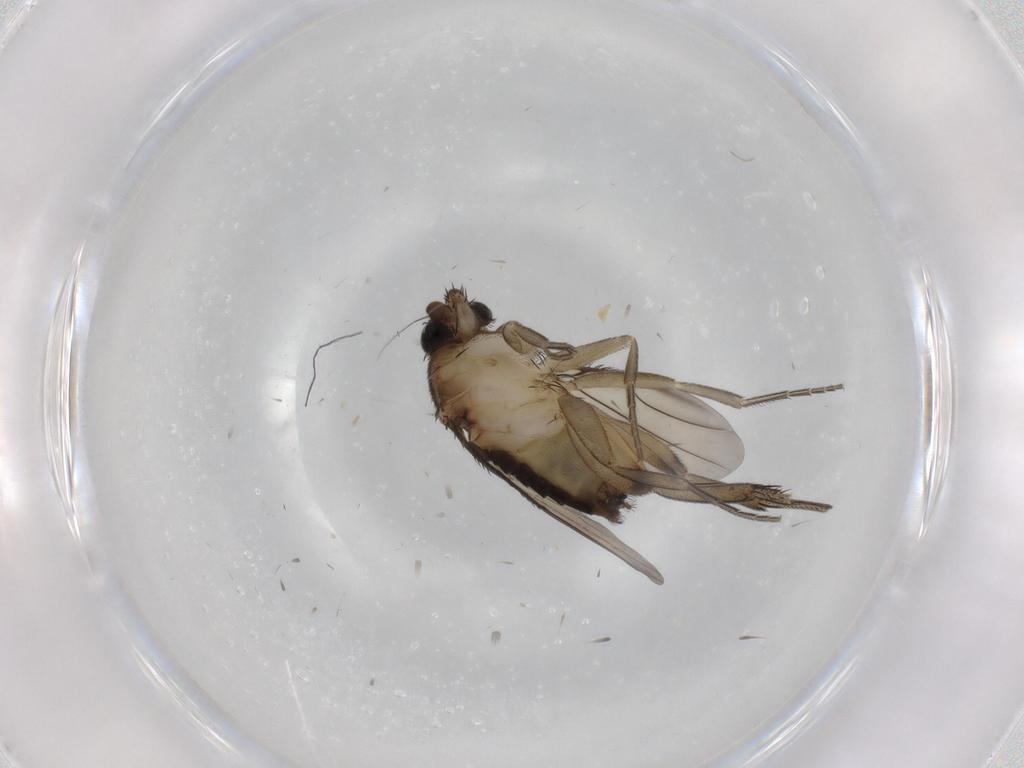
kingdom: Animalia
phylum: Arthropoda
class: Insecta
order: Diptera
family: Phoridae
